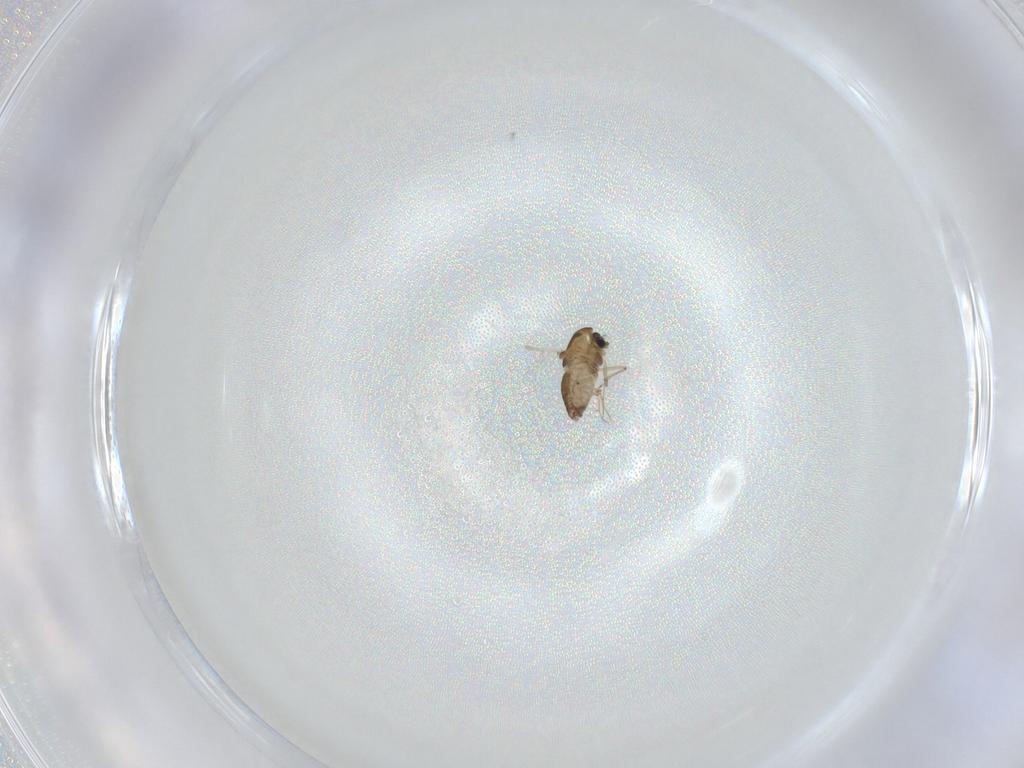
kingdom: Animalia
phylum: Arthropoda
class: Insecta
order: Diptera
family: Chironomidae
